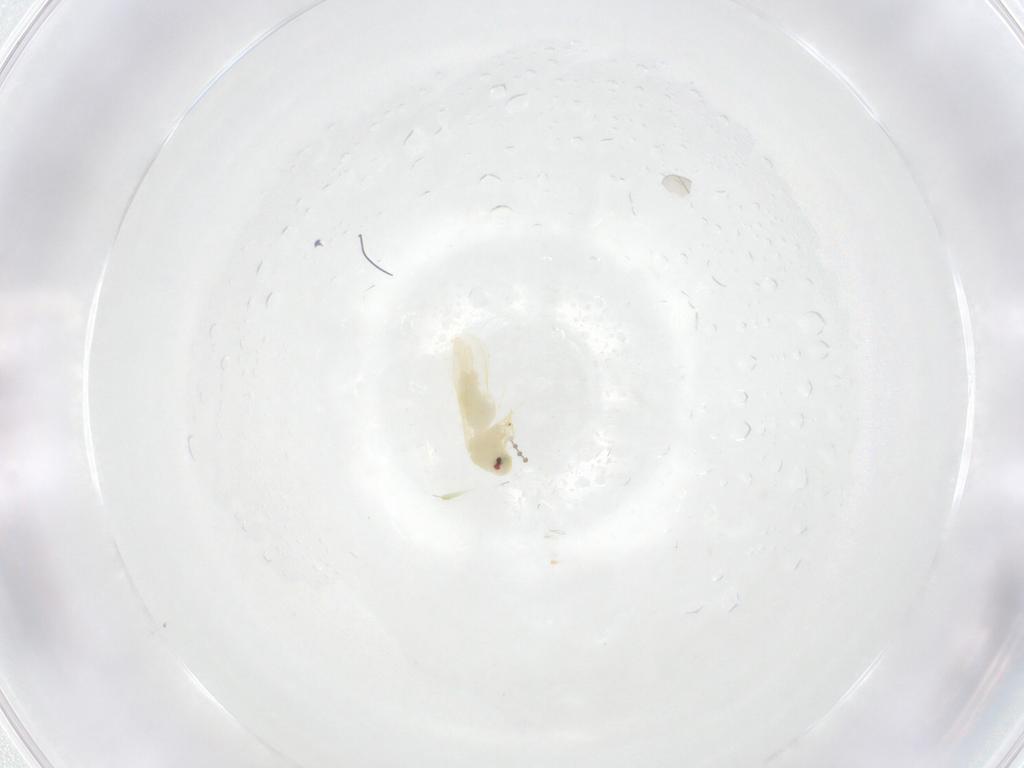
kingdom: Animalia
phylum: Arthropoda
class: Insecta
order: Diptera
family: Cecidomyiidae
